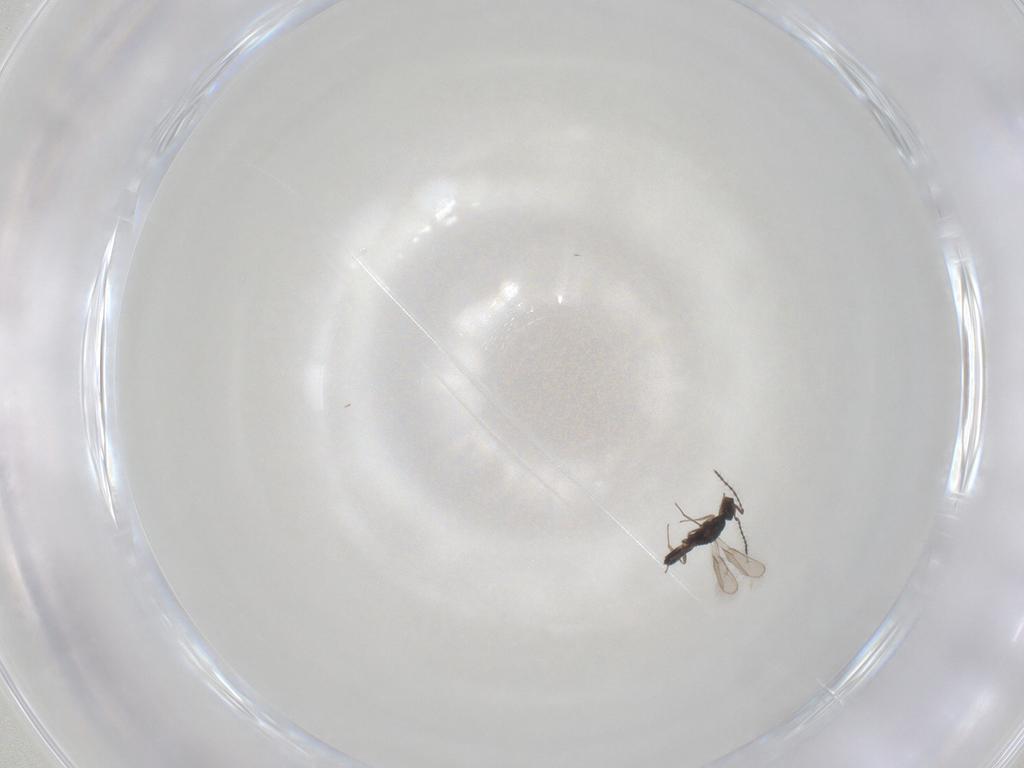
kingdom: Animalia
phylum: Arthropoda
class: Insecta
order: Hymenoptera
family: Pteromalidae
